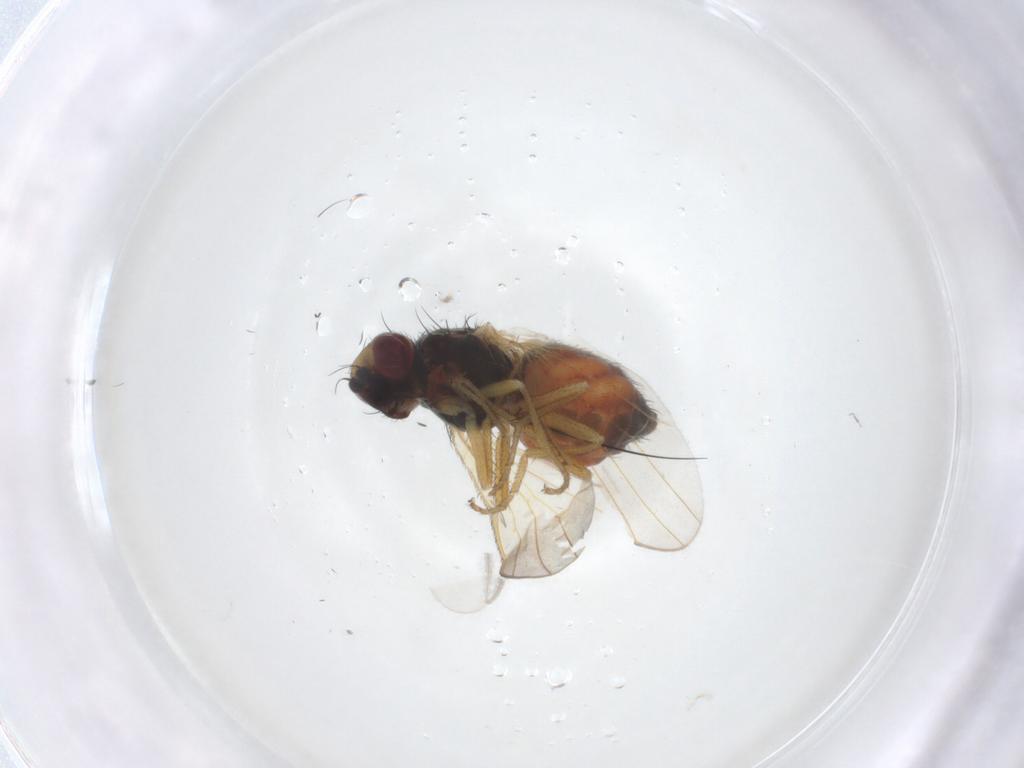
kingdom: Animalia
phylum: Arthropoda
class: Insecta
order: Diptera
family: Heleomyzidae
